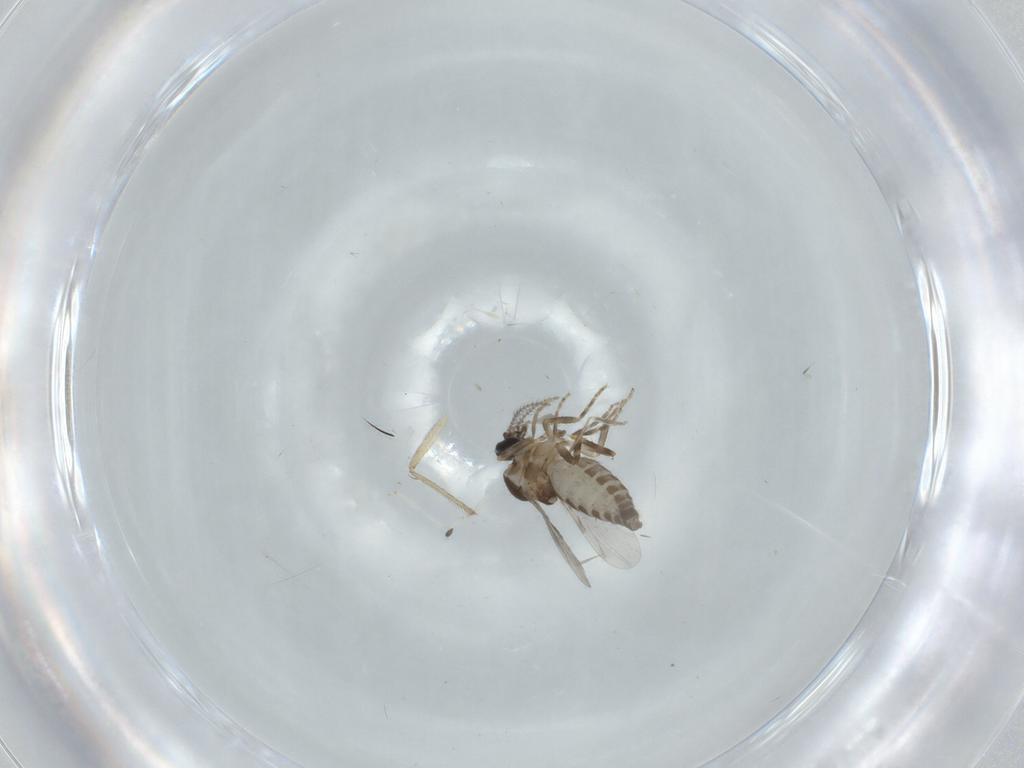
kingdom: Animalia
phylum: Arthropoda
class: Insecta
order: Diptera
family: Ceratopogonidae
